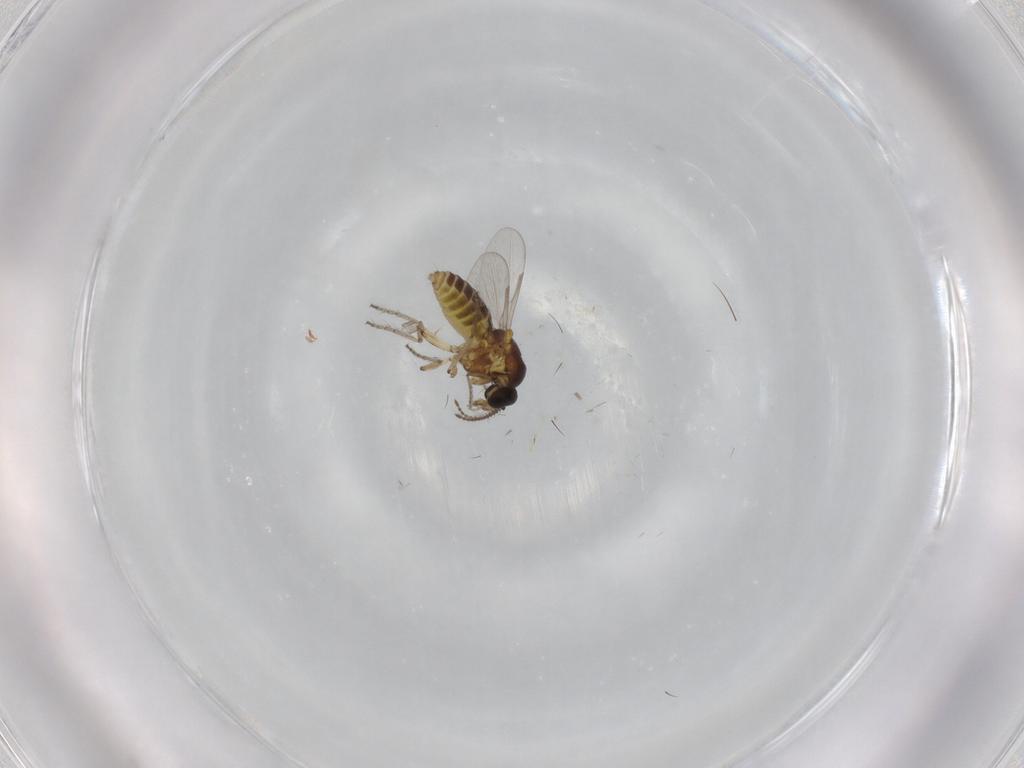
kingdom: Animalia
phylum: Arthropoda
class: Insecta
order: Diptera
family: Ceratopogonidae
